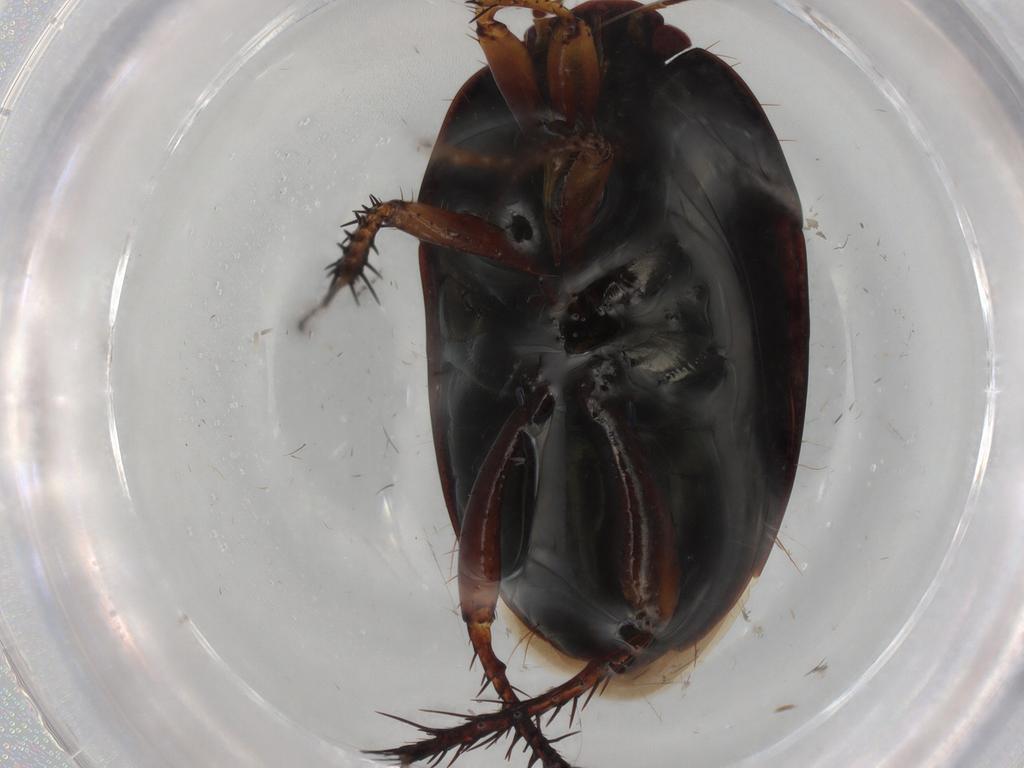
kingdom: Animalia
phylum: Arthropoda
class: Insecta
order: Hemiptera
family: Cydnidae
